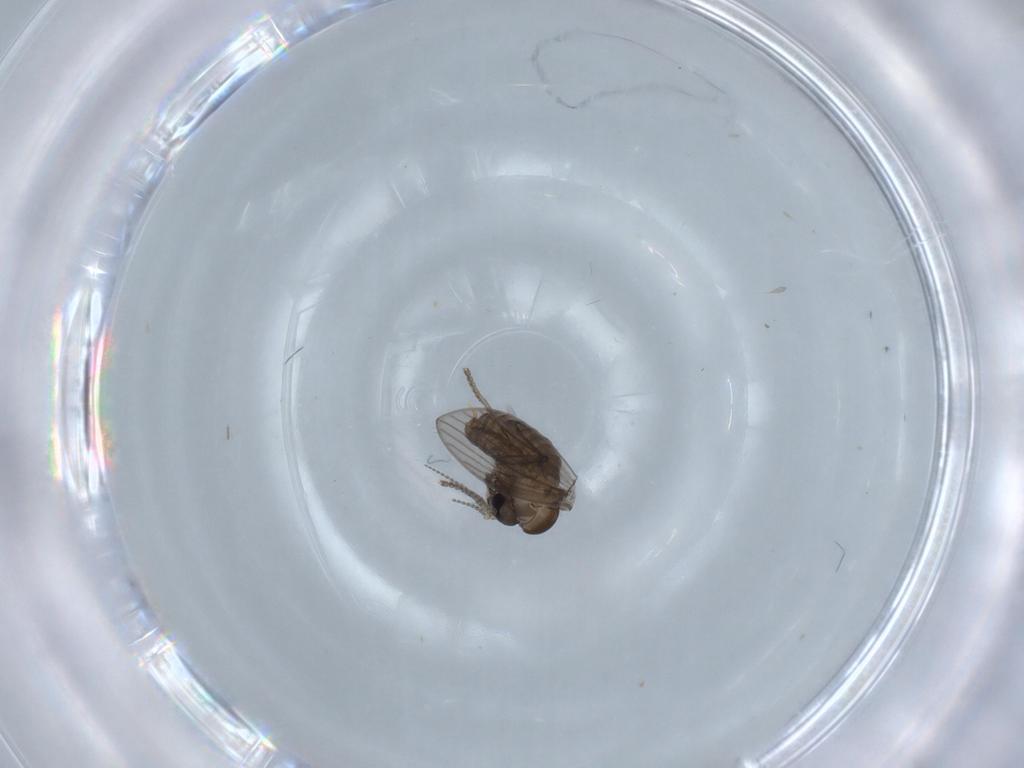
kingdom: Animalia
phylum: Arthropoda
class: Insecta
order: Diptera
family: Psychodidae
